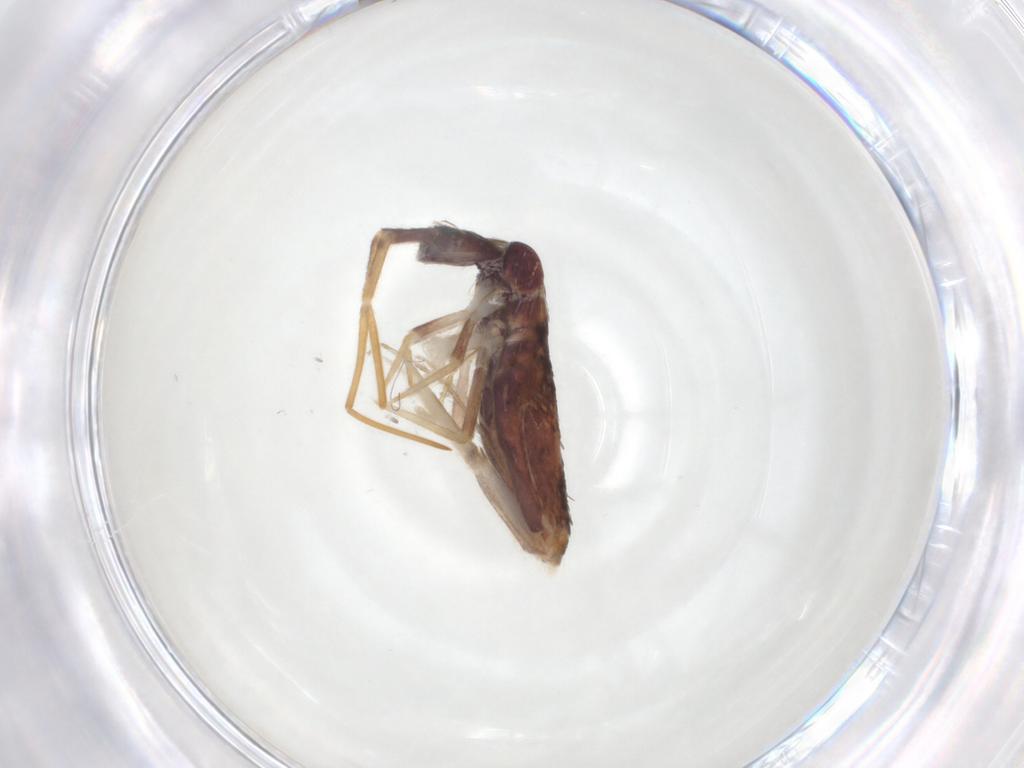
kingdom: Animalia
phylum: Arthropoda
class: Collembola
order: Entomobryomorpha
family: Entomobryidae
